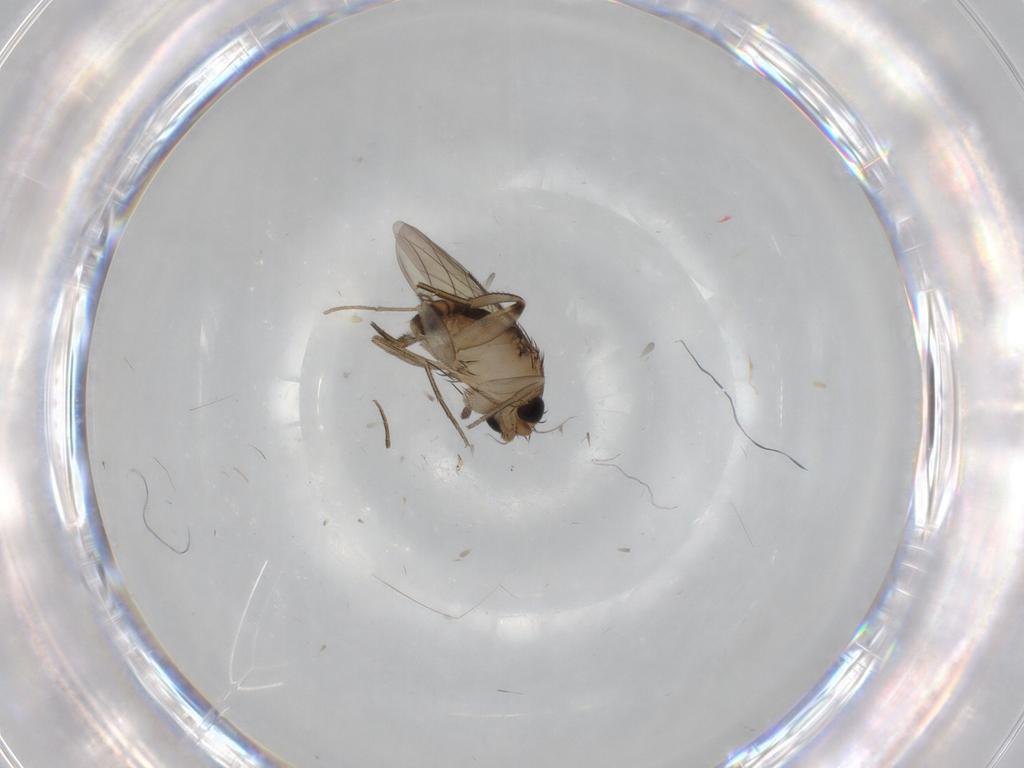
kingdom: Animalia
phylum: Arthropoda
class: Insecta
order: Diptera
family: Phoridae
